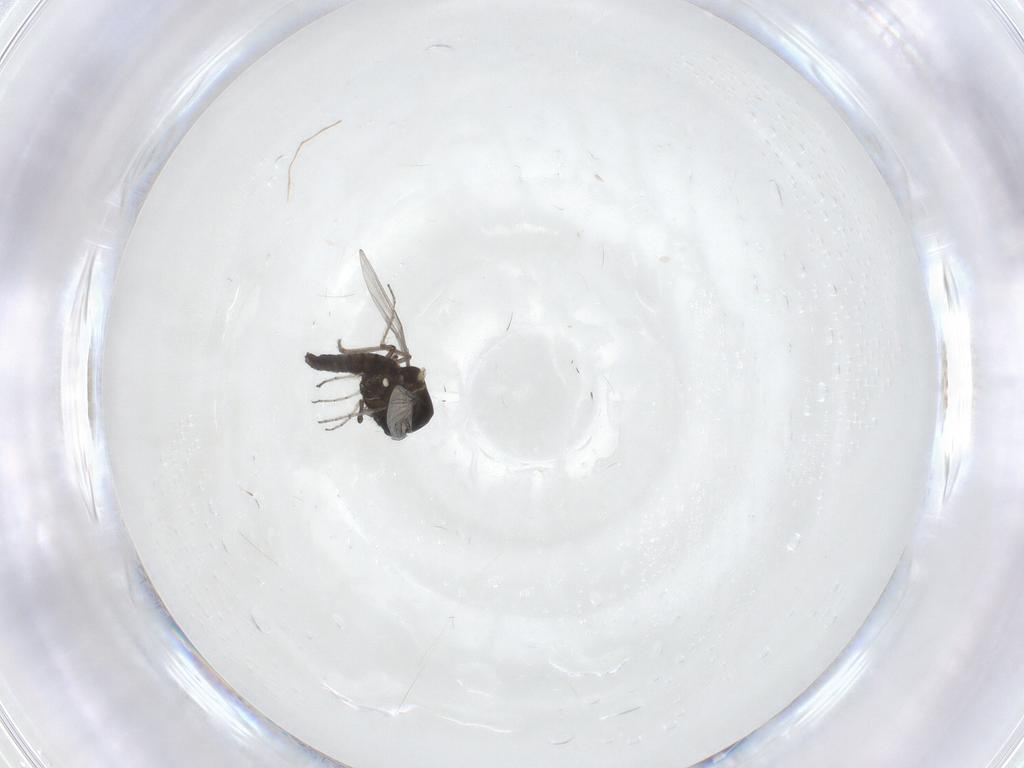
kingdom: Animalia
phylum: Arthropoda
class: Insecta
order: Diptera
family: Ceratopogonidae
